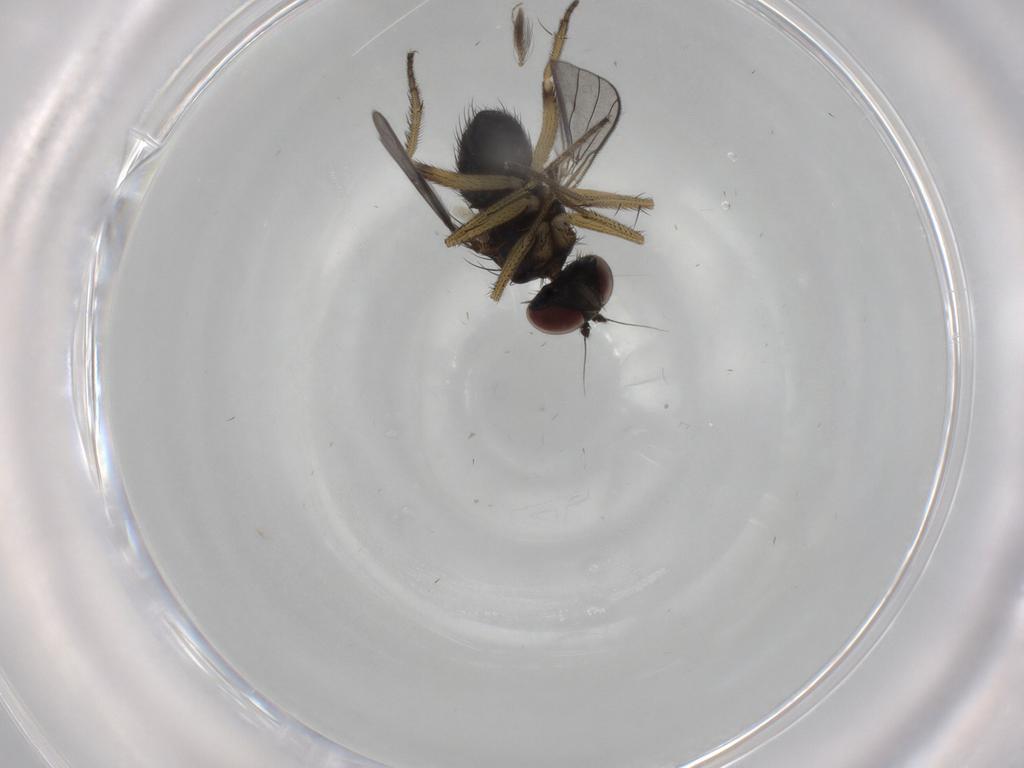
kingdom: Animalia
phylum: Arthropoda
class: Insecta
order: Diptera
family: Dolichopodidae
